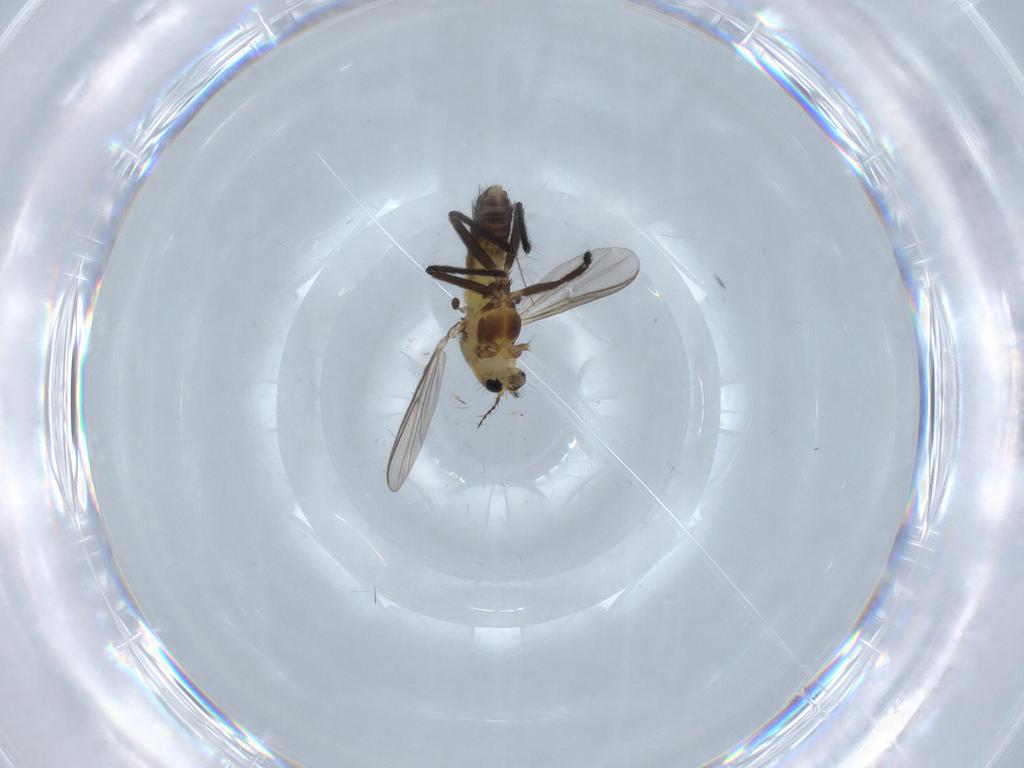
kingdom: Animalia
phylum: Arthropoda
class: Insecta
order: Diptera
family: Chironomidae
